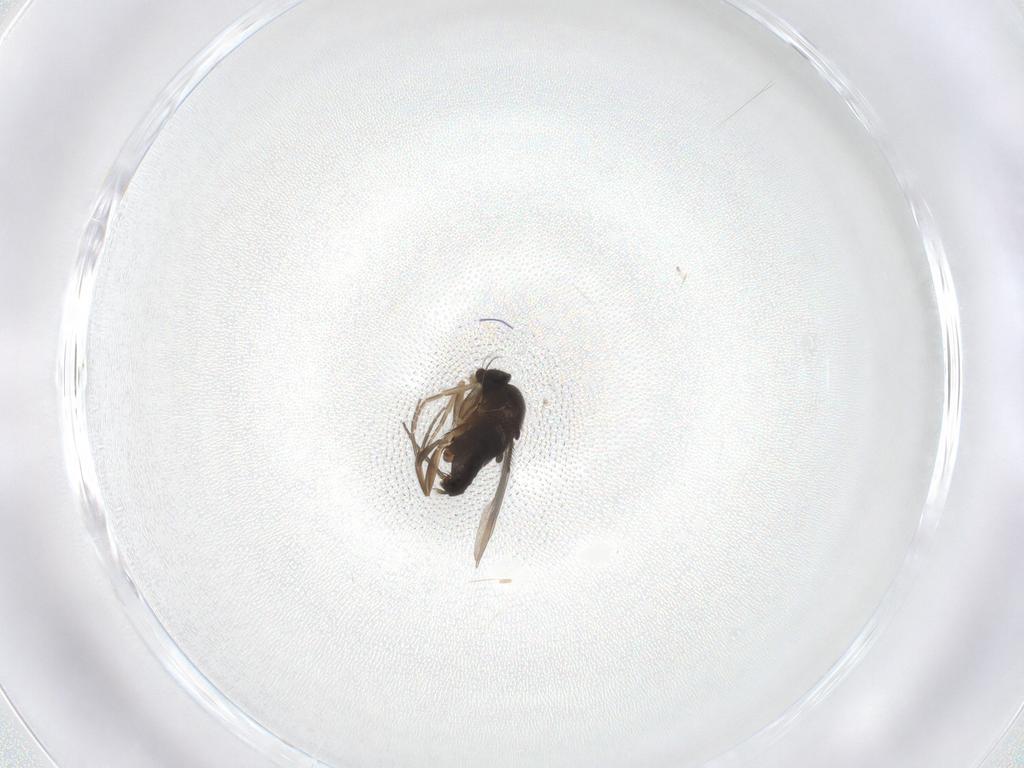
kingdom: Animalia
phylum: Arthropoda
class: Insecta
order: Diptera
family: Phoridae
